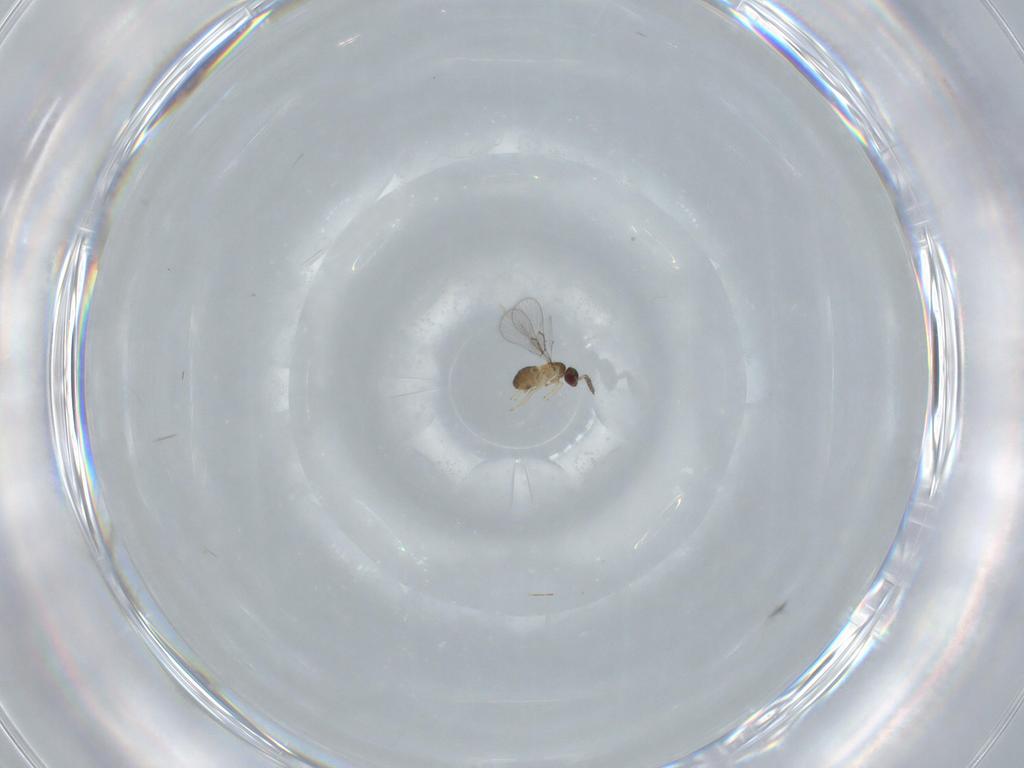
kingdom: Animalia
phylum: Arthropoda
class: Insecta
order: Hymenoptera
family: Trichogrammatidae
